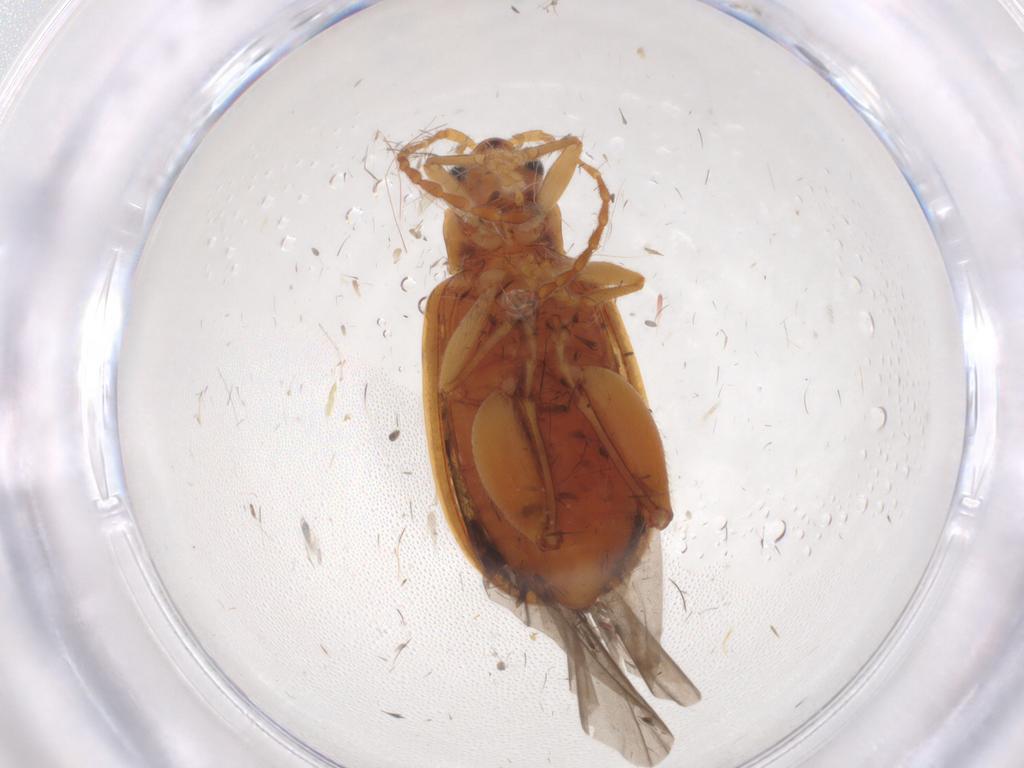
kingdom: Animalia
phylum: Arthropoda
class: Insecta
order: Coleoptera
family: Chrysomelidae
